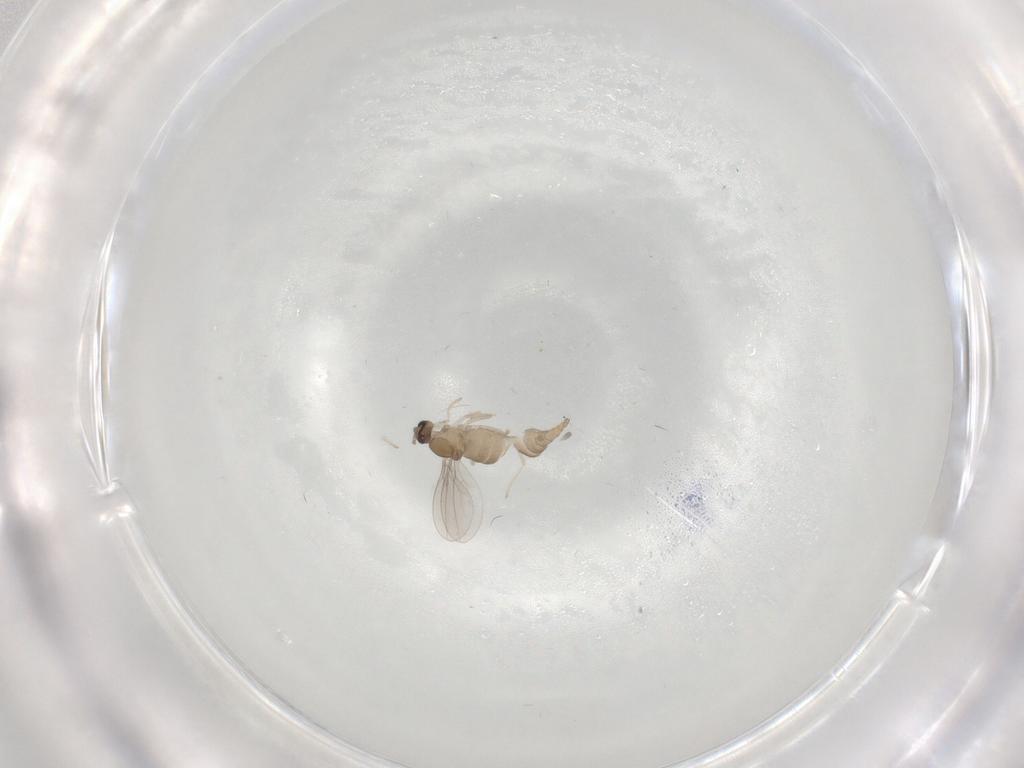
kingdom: Animalia
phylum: Arthropoda
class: Insecta
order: Diptera
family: Cecidomyiidae
